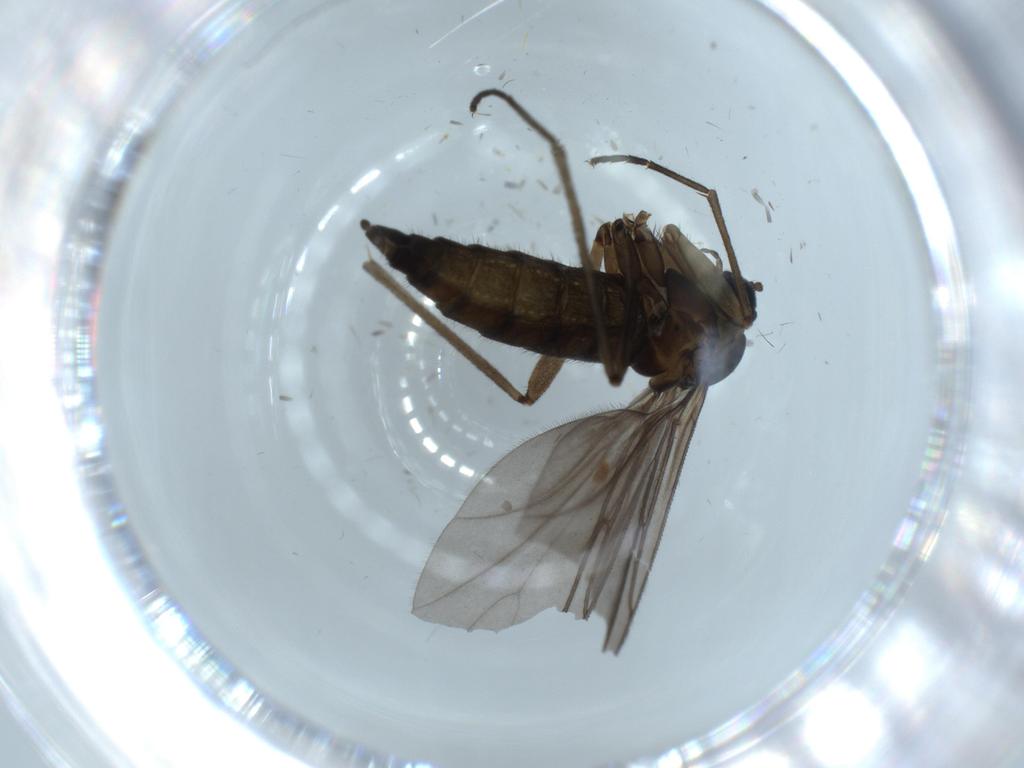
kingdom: Animalia
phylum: Arthropoda
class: Insecta
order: Diptera
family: Sciaridae
